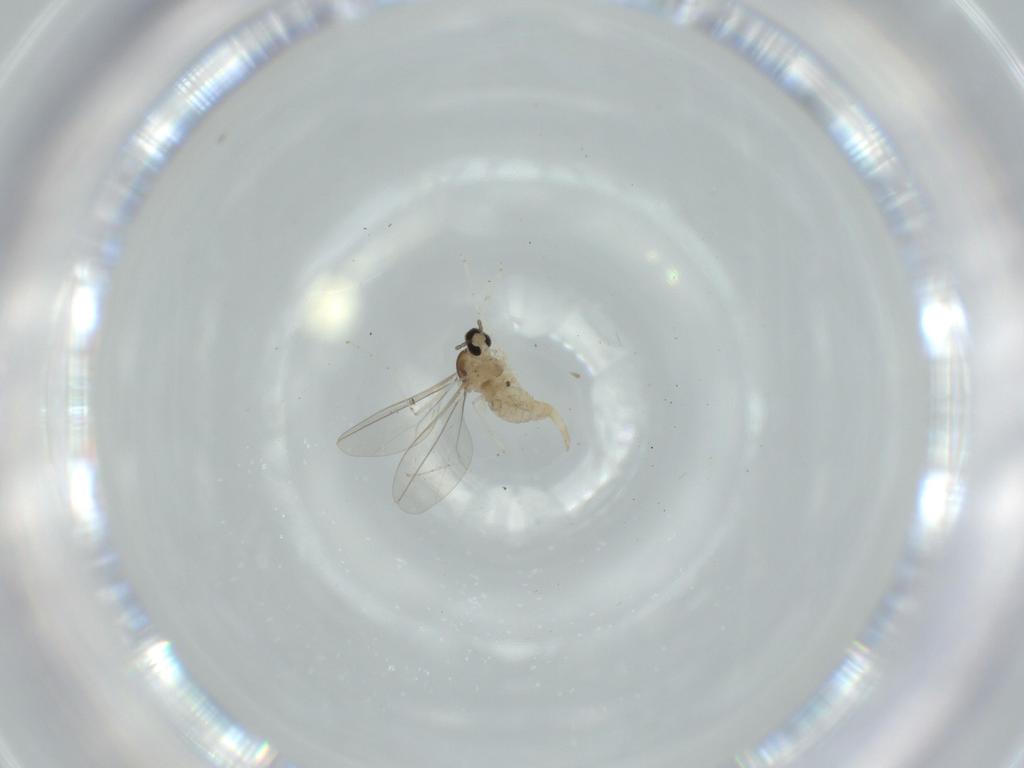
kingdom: Animalia
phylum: Arthropoda
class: Insecta
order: Diptera
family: Cecidomyiidae
